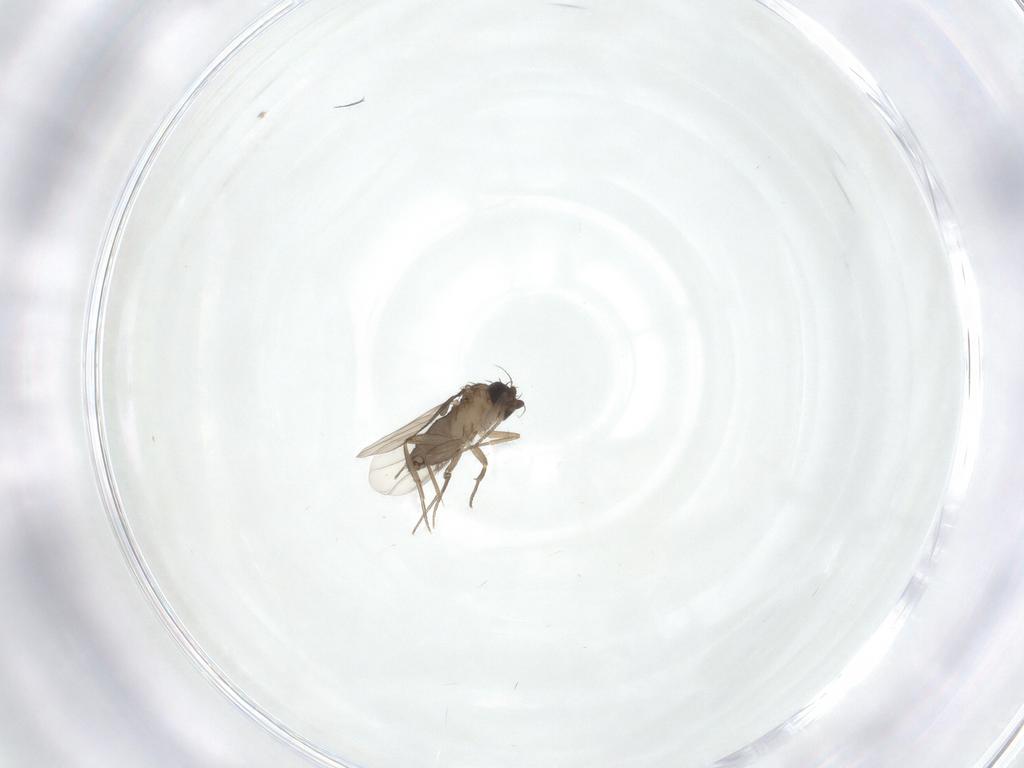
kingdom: Animalia
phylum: Arthropoda
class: Insecta
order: Diptera
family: Phoridae
